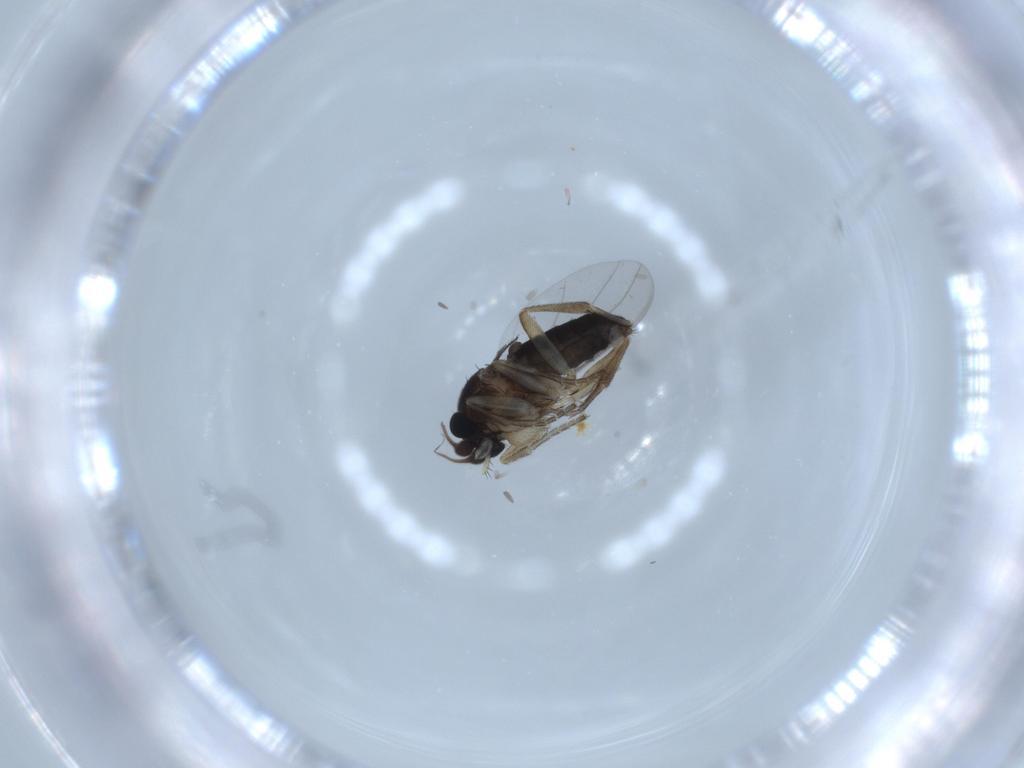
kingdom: Animalia
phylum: Arthropoda
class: Insecta
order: Diptera
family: Phoridae
